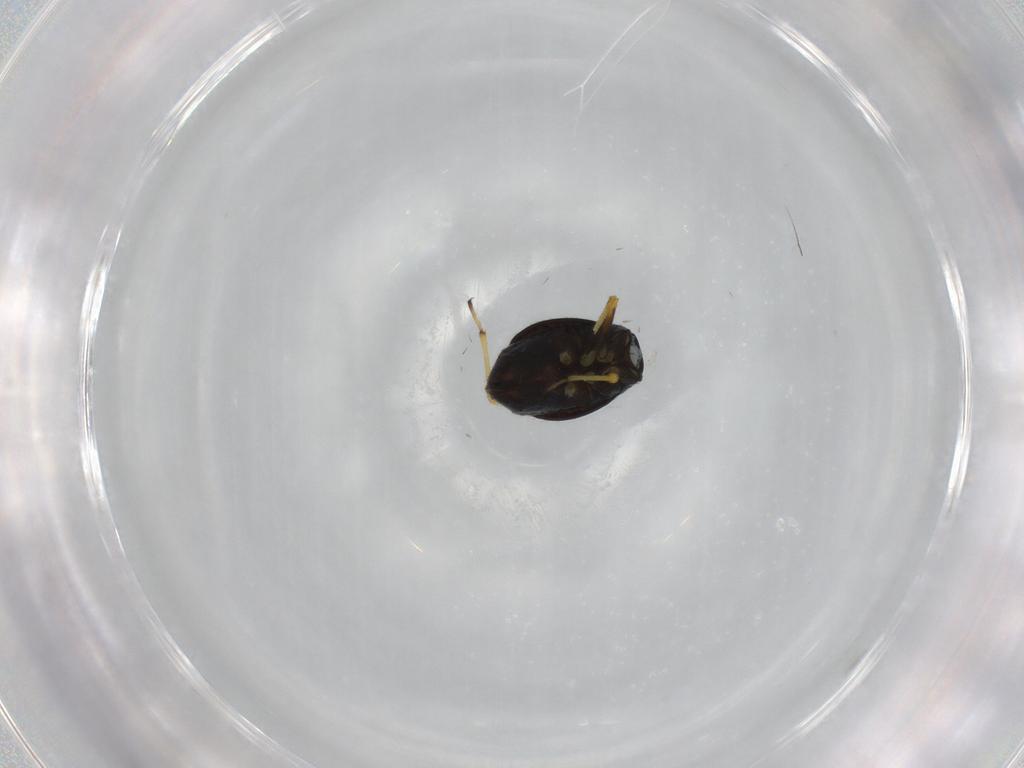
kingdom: Animalia
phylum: Arthropoda
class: Insecta
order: Hemiptera
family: Miridae
